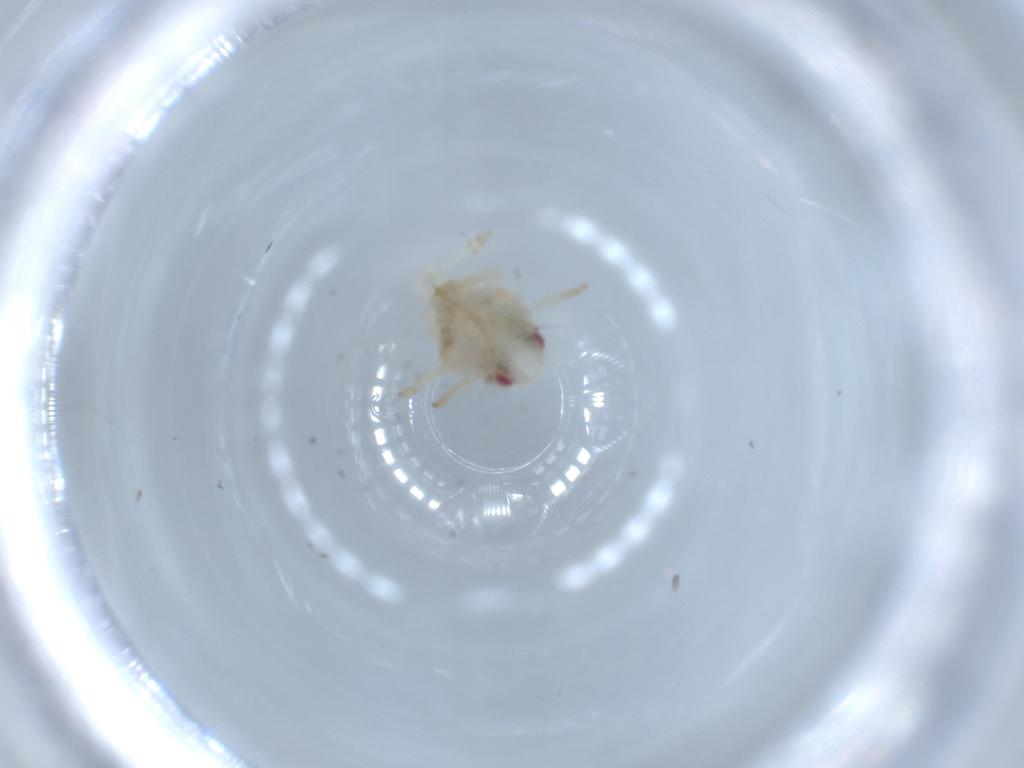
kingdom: Animalia
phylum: Arthropoda
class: Insecta
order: Hemiptera
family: Acanaloniidae
